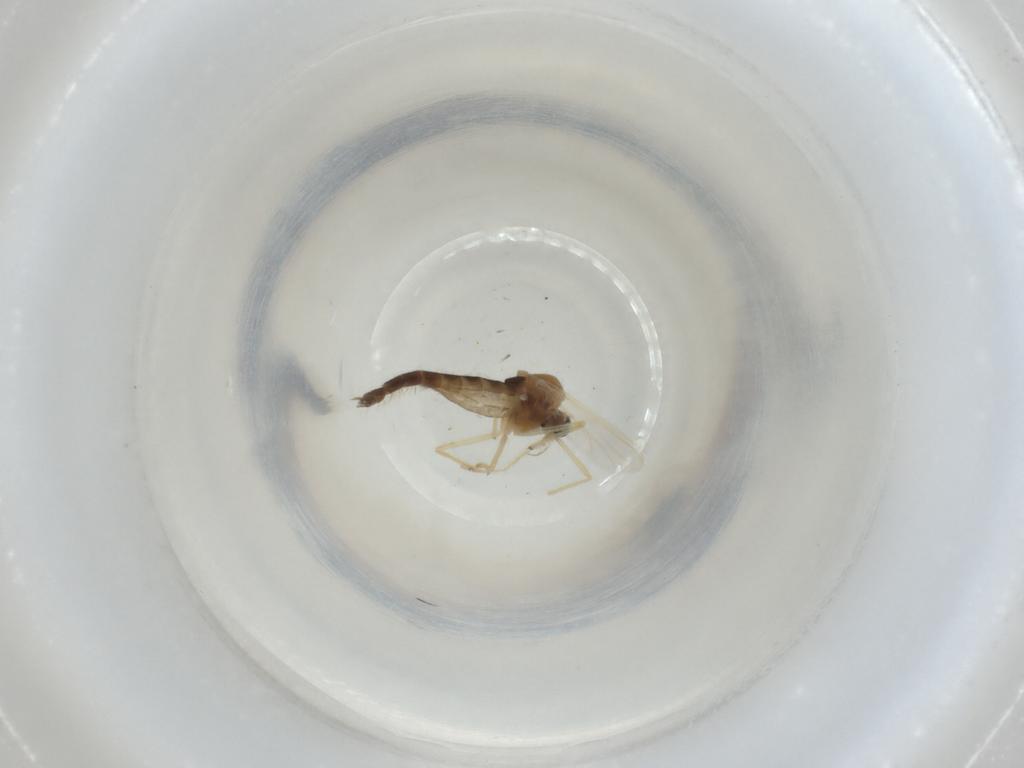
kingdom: Animalia
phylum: Arthropoda
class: Insecta
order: Diptera
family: Chironomidae
